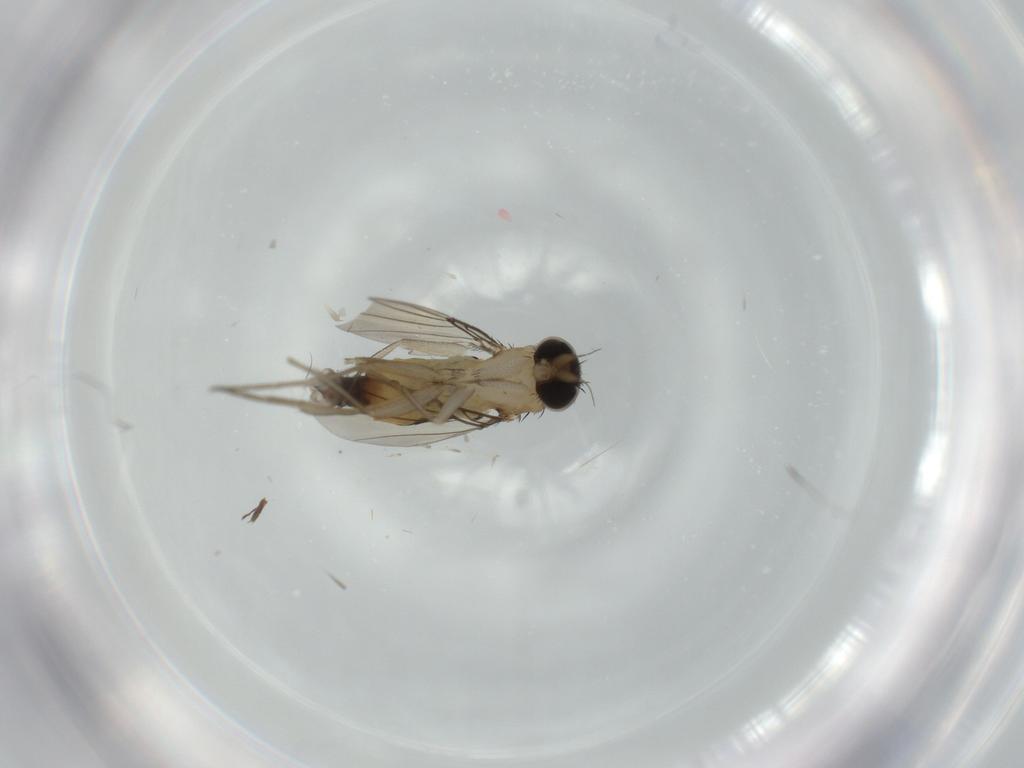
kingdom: Animalia
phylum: Arthropoda
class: Insecta
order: Diptera
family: Phoridae
